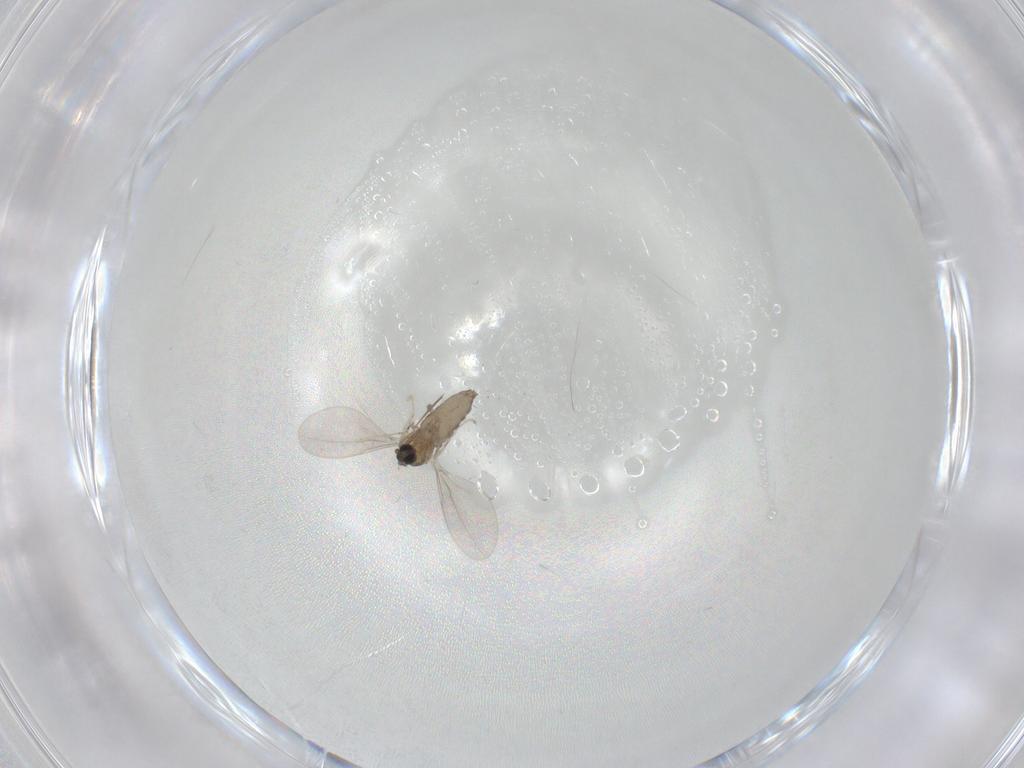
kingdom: Animalia
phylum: Arthropoda
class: Insecta
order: Diptera
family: Cecidomyiidae
